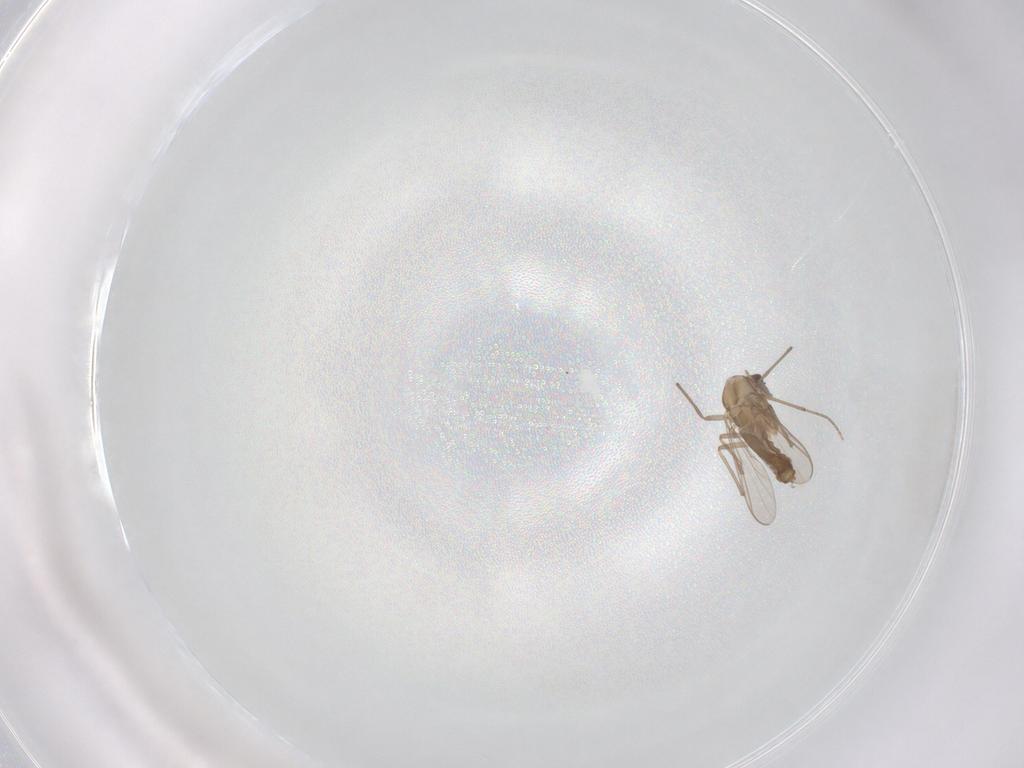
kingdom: Animalia
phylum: Arthropoda
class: Insecta
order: Diptera
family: Chironomidae
